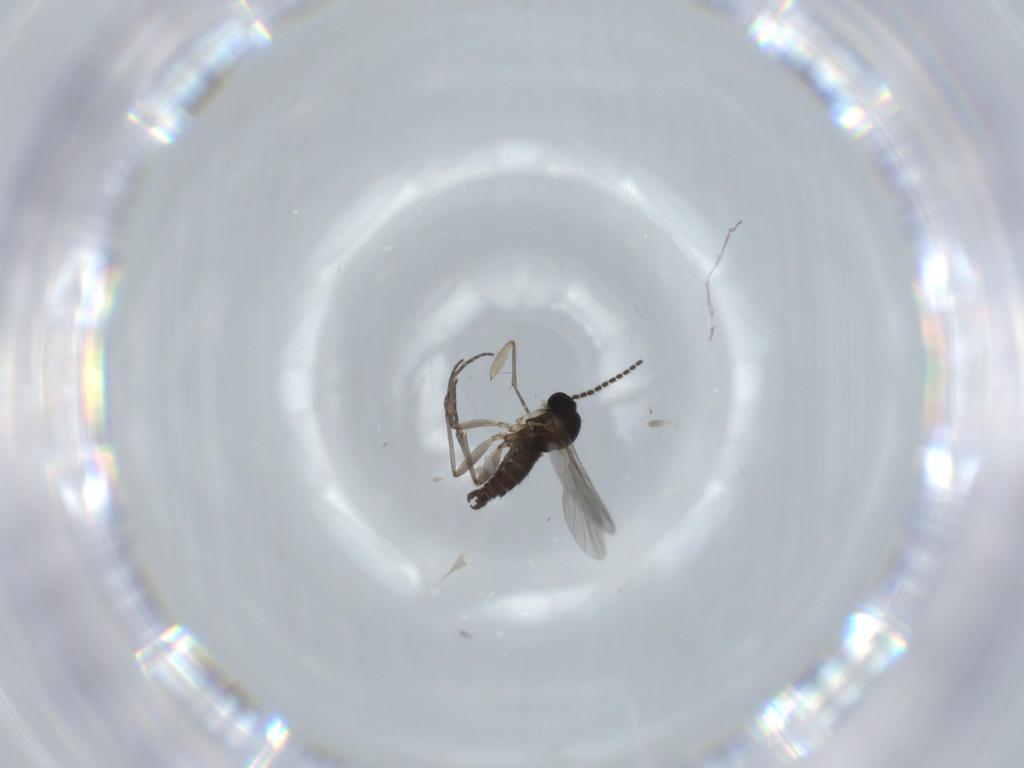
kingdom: Animalia
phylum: Arthropoda
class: Insecta
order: Diptera
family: Sciaridae
